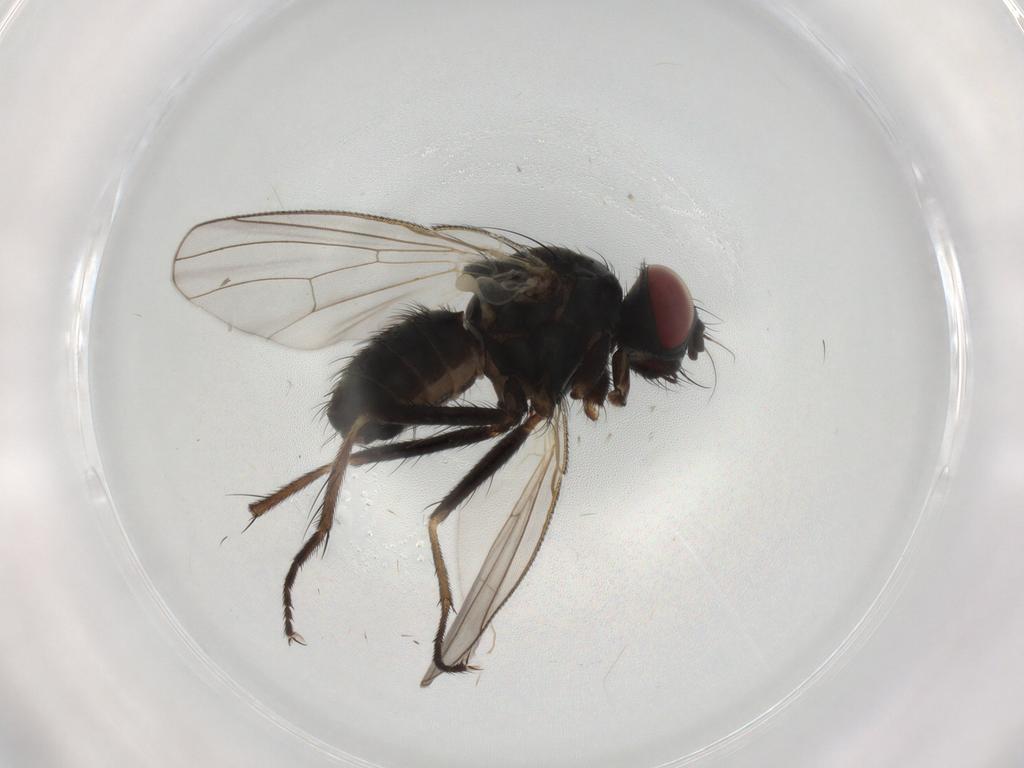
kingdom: Animalia
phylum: Arthropoda
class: Insecta
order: Diptera
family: Muscidae
